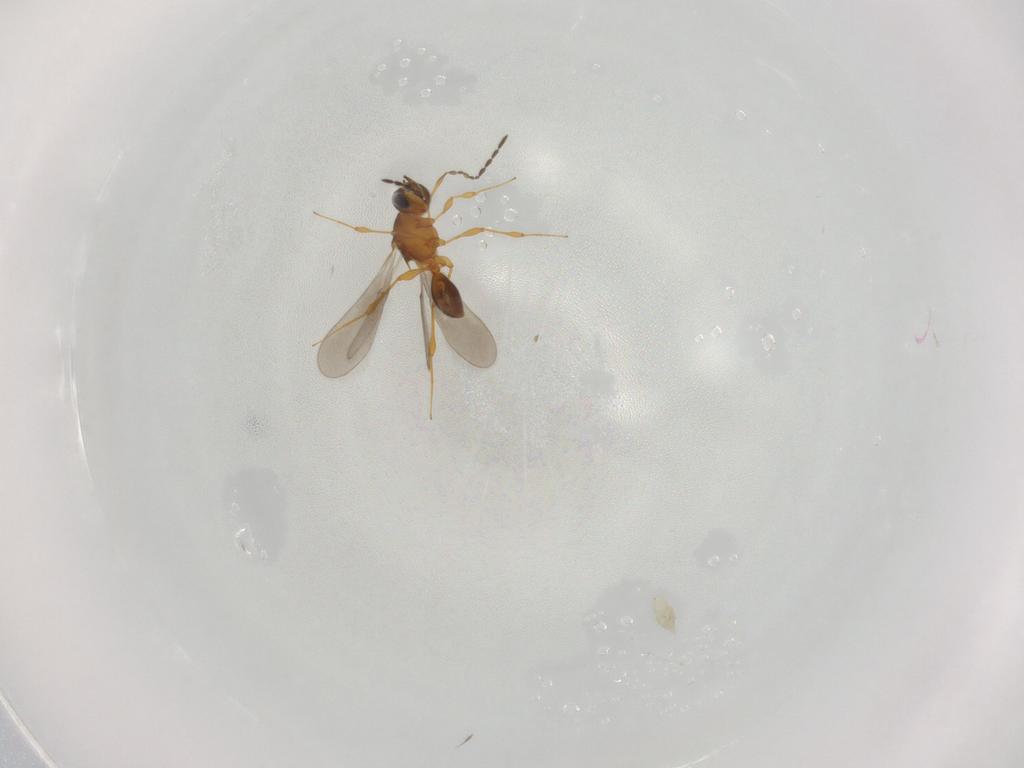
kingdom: Animalia
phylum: Arthropoda
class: Insecta
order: Hymenoptera
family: Platygastridae
